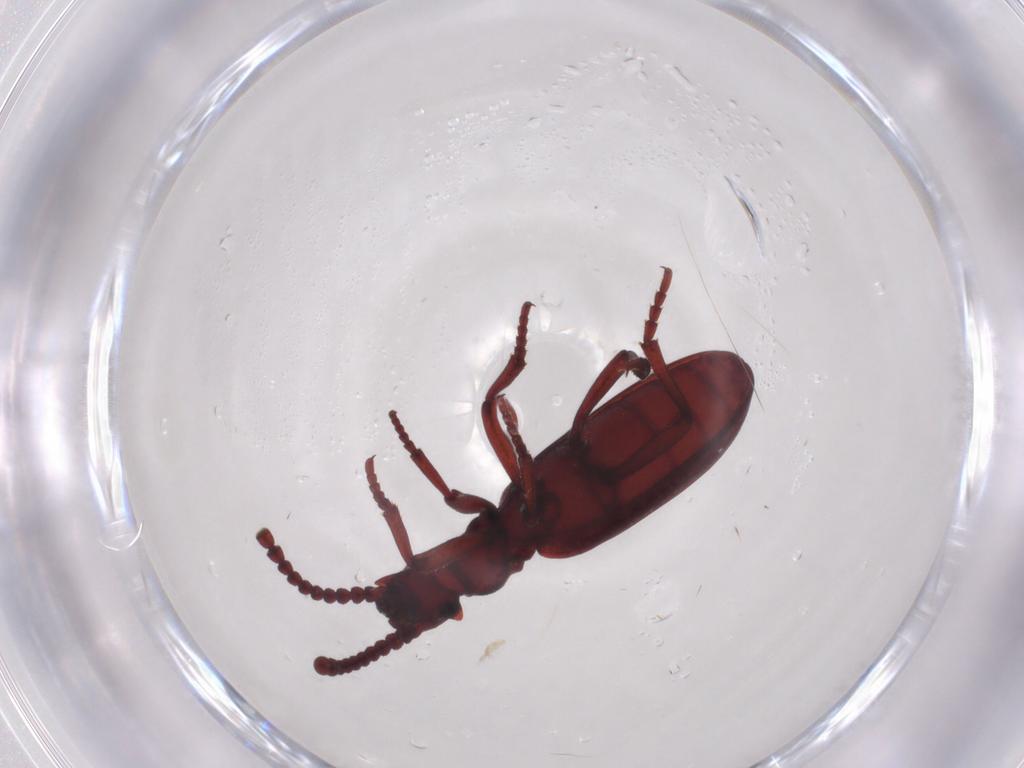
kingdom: Animalia
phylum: Arthropoda
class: Insecta
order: Coleoptera
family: Anthicidae
